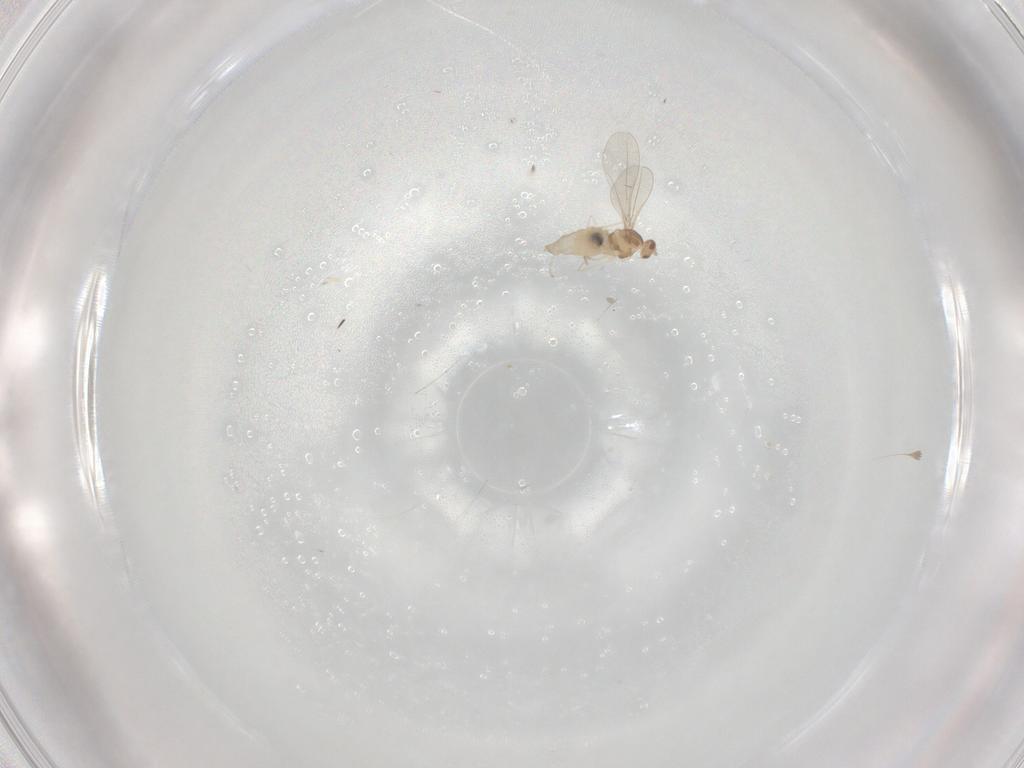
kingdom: Animalia
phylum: Arthropoda
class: Insecta
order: Diptera
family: Cecidomyiidae
